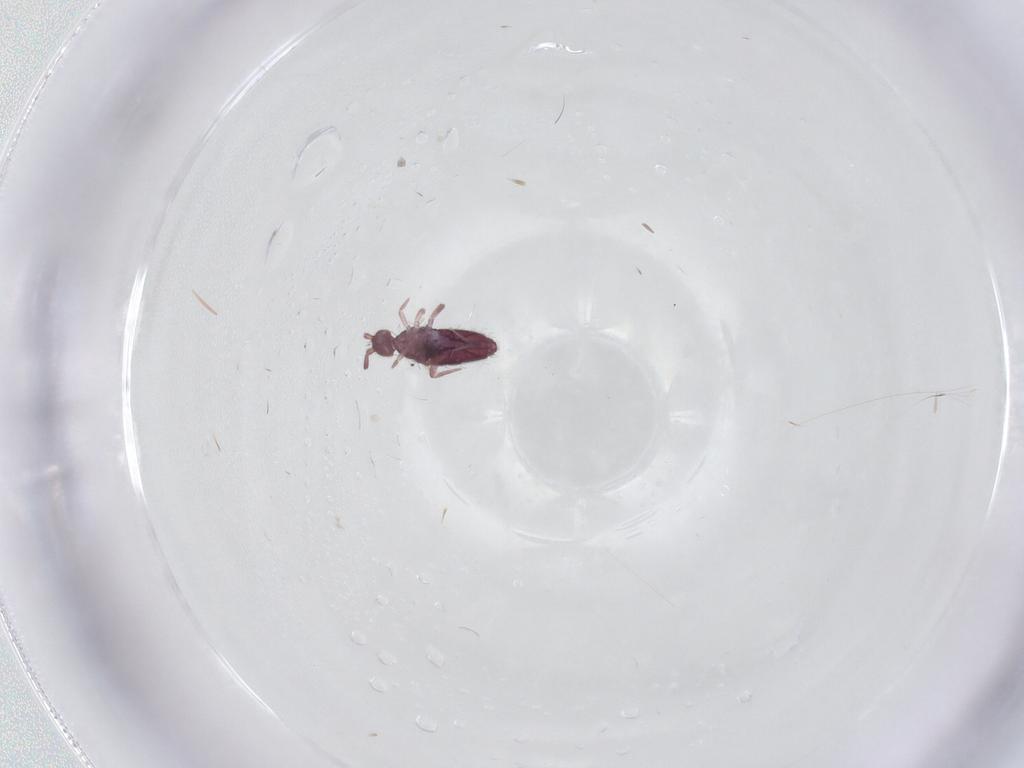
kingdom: Animalia
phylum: Arthropoda
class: Collembola
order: Entomobryomorpha
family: Entomobryidae
